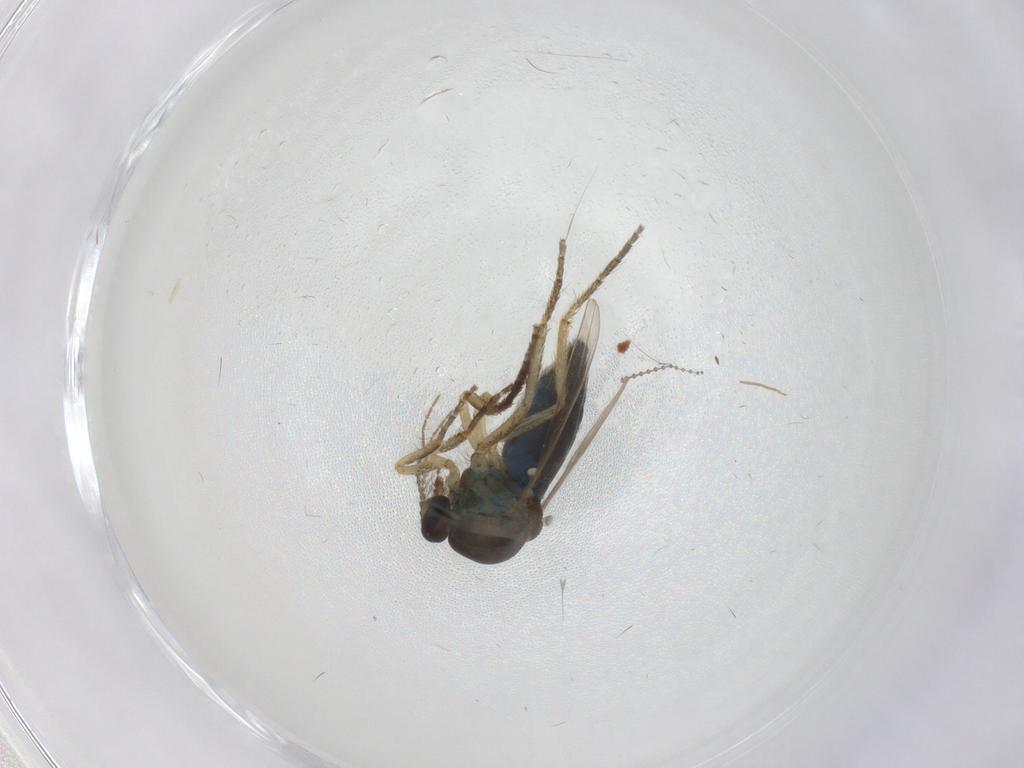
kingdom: Animalia
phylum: Arthropoda
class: Insecta
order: Diptera
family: Ceratopogonidae
